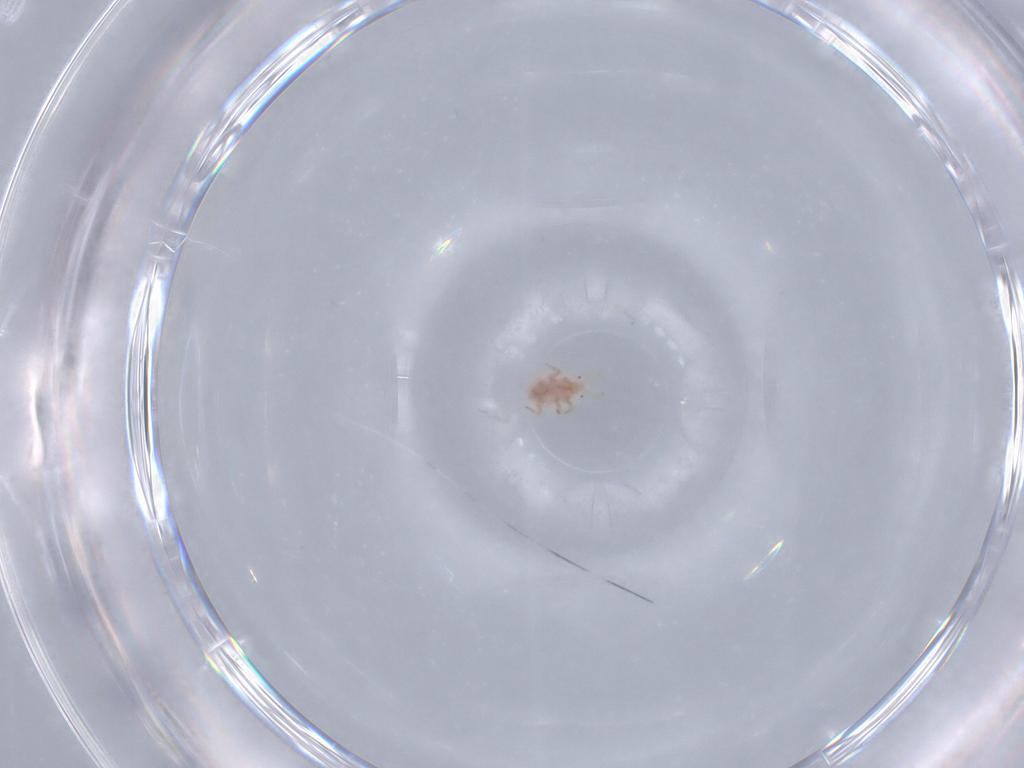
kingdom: Animalia
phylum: Arthropoda
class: Insecta
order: Hemiptera
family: Pseudococcidae
